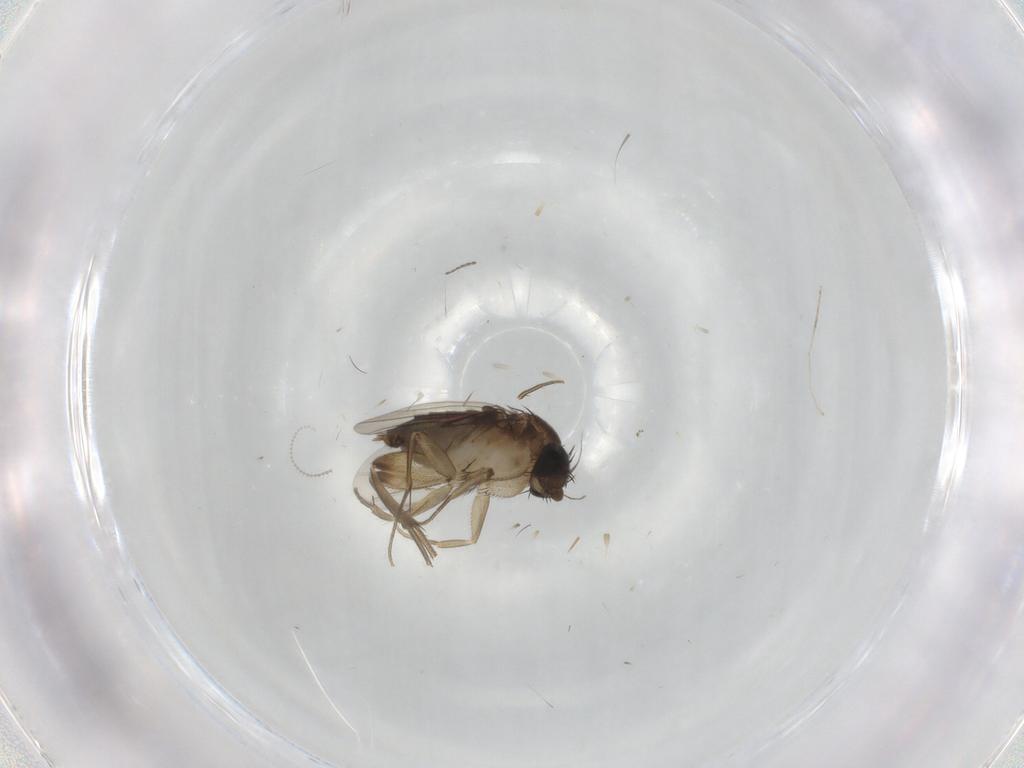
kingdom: Animalia
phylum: Arthropoda
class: Insecta
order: Diptera
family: Phoridae
